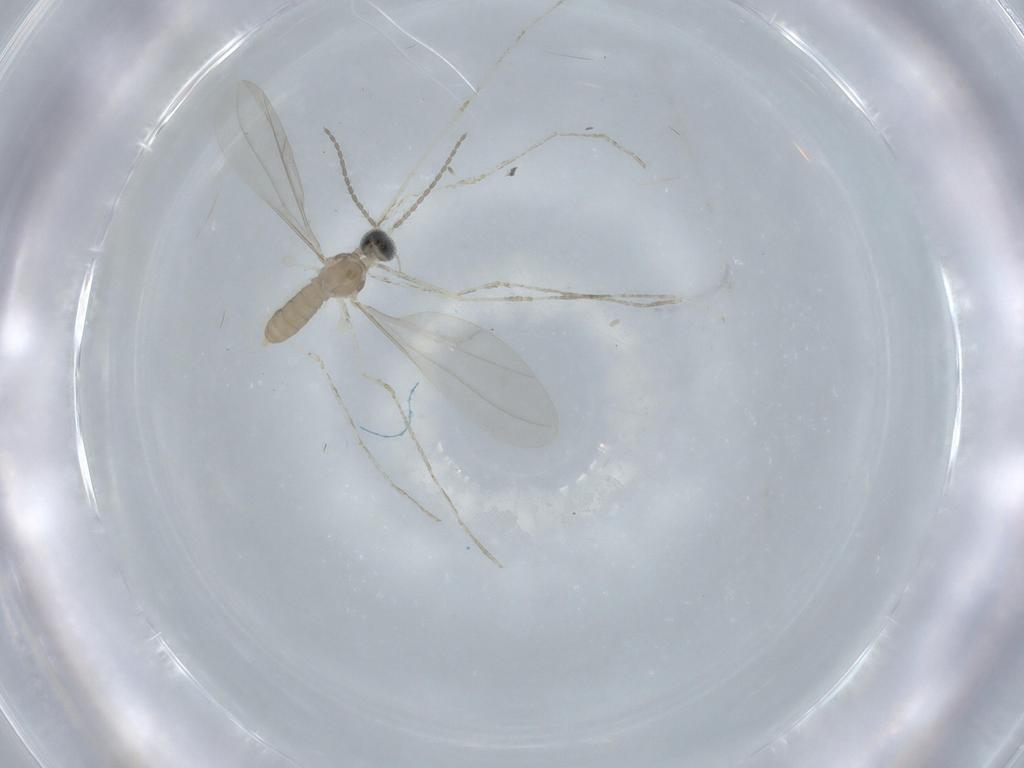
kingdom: Animalia
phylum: Arthropoda
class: Insecta
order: Diptera
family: Cecidomyiidae
